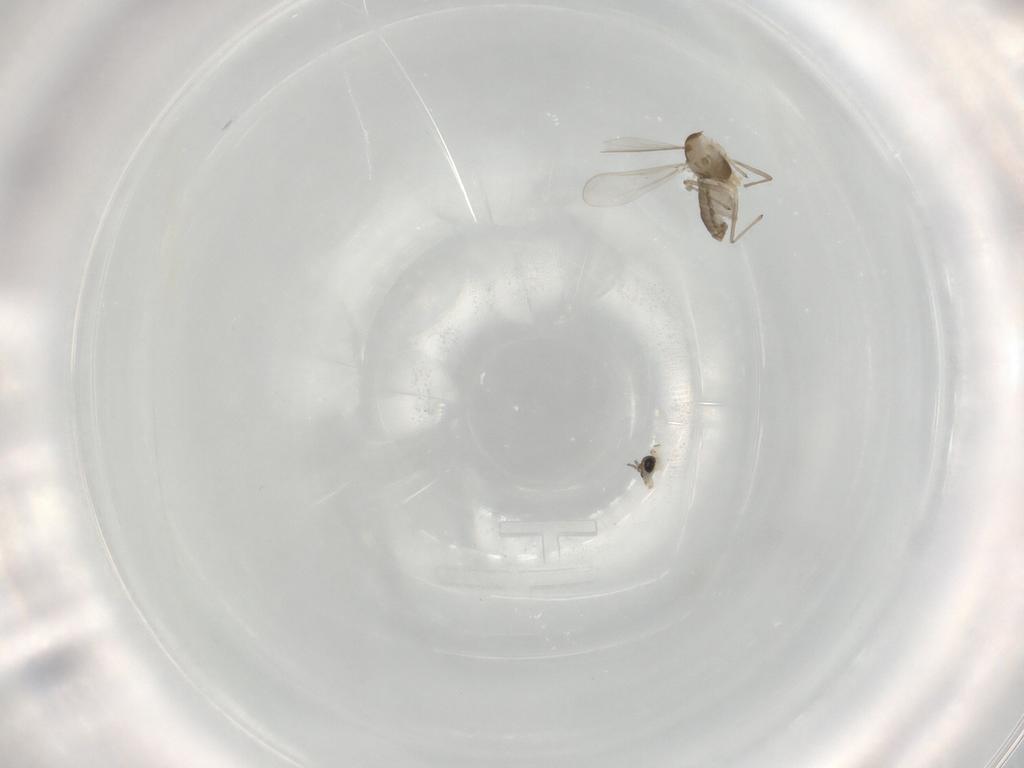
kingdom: Animalia
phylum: Arthropoda
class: Insecta
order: Diptera
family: Chironomidae
